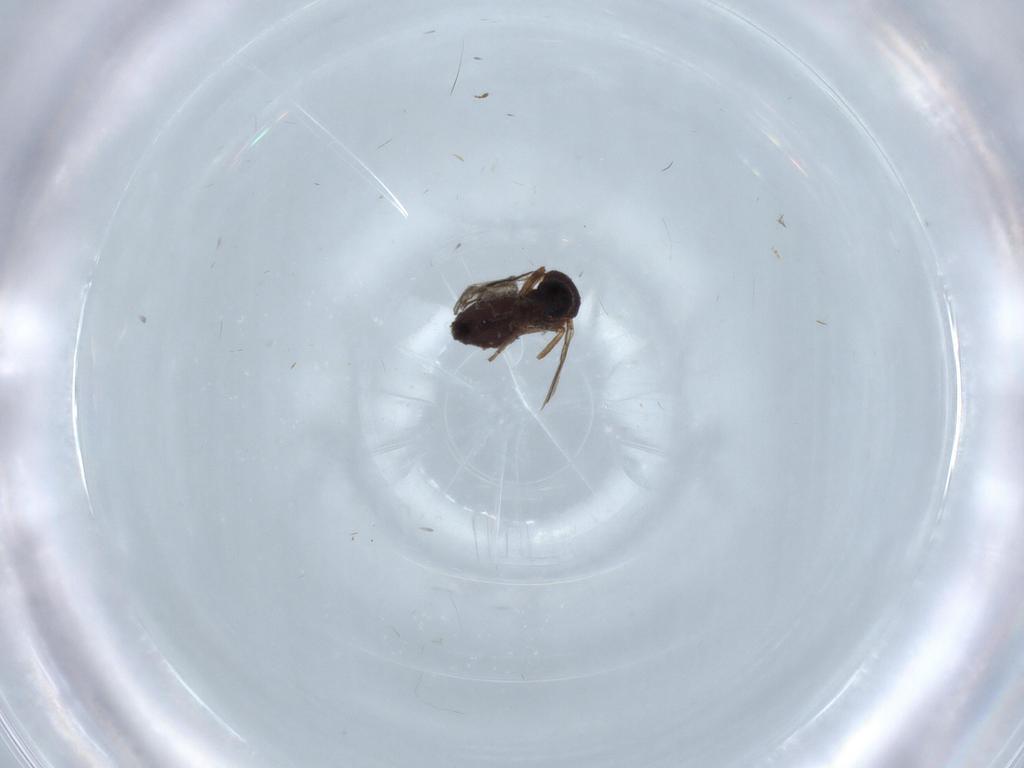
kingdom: Animalia
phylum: Arthropoda
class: Insecta
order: Diptera
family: Ceratopogonidae
